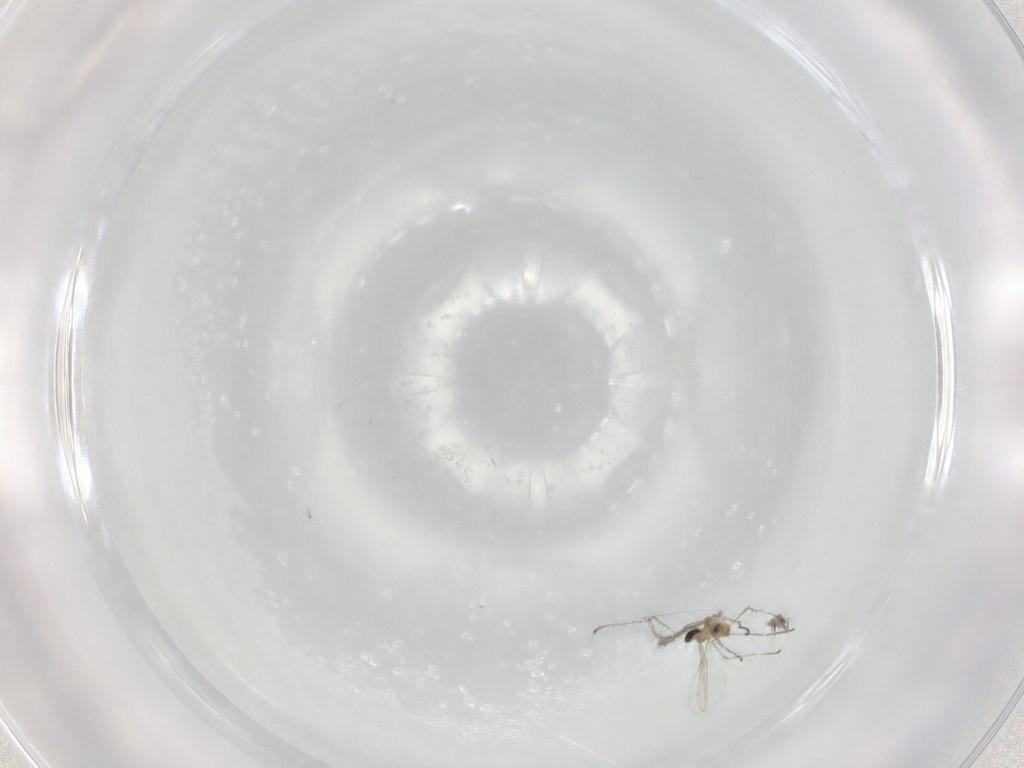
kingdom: Animalia
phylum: Arthropoda
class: Insecta
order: Diptera
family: Cecidomyiidae
